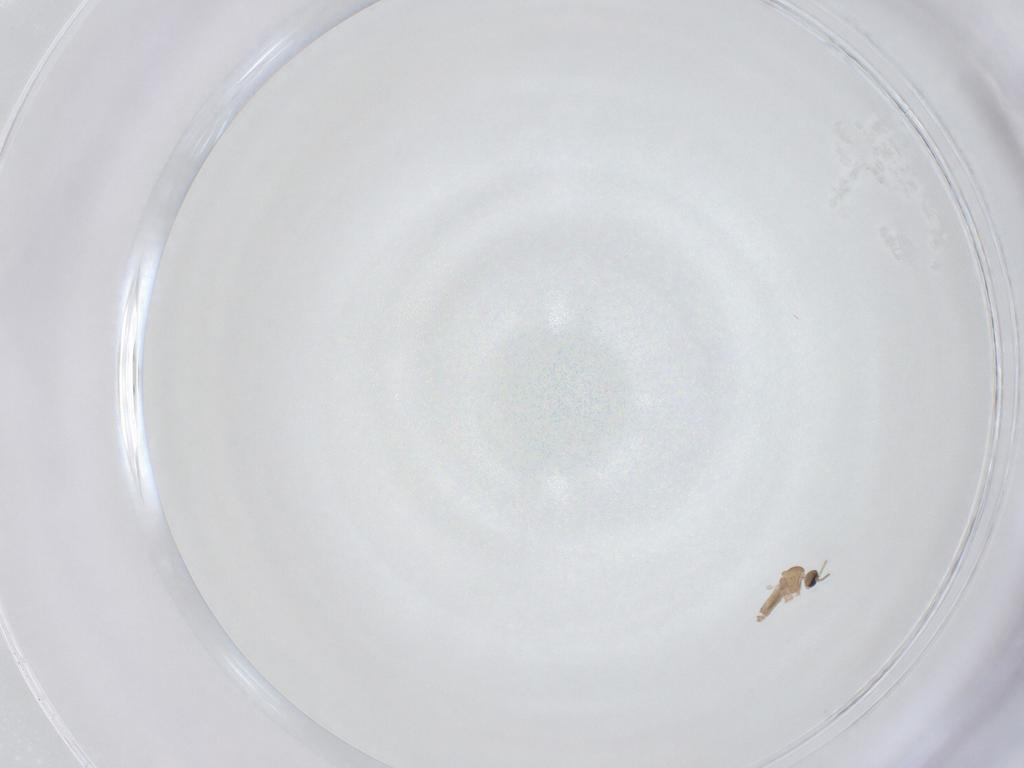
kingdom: Animalia
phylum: Arthropoda
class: Insecta
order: Diptera
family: Cecidomyiidae
